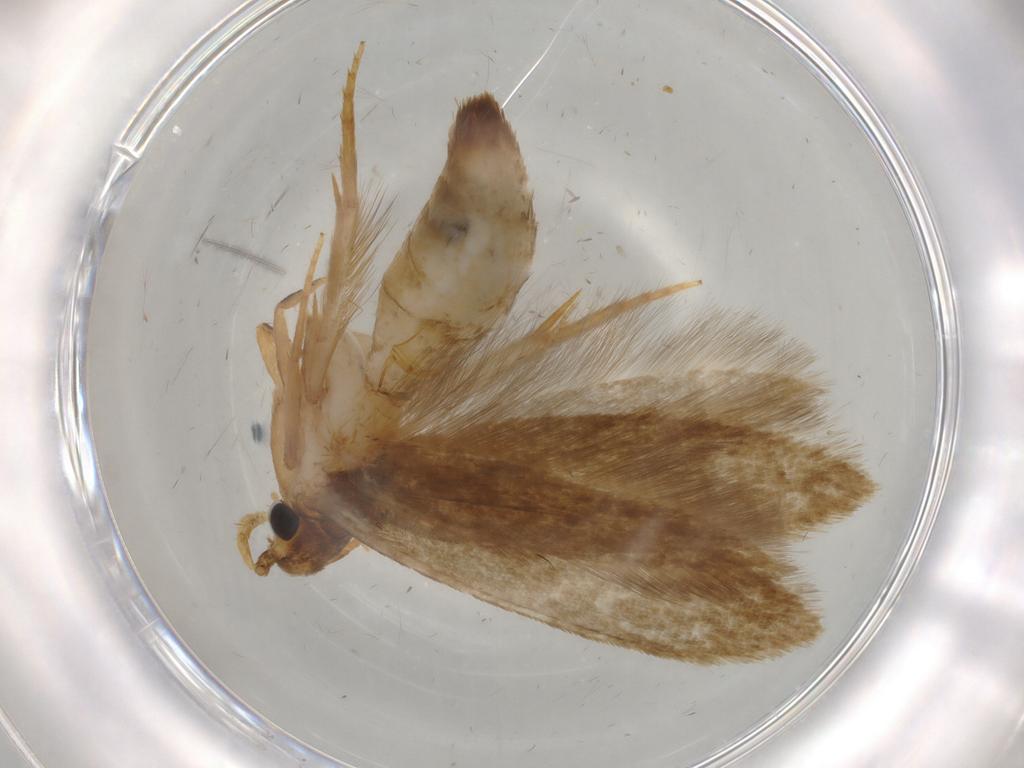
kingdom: Animalia
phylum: Arthropoda
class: Insecta
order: Lepidoptera
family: Tineidae
